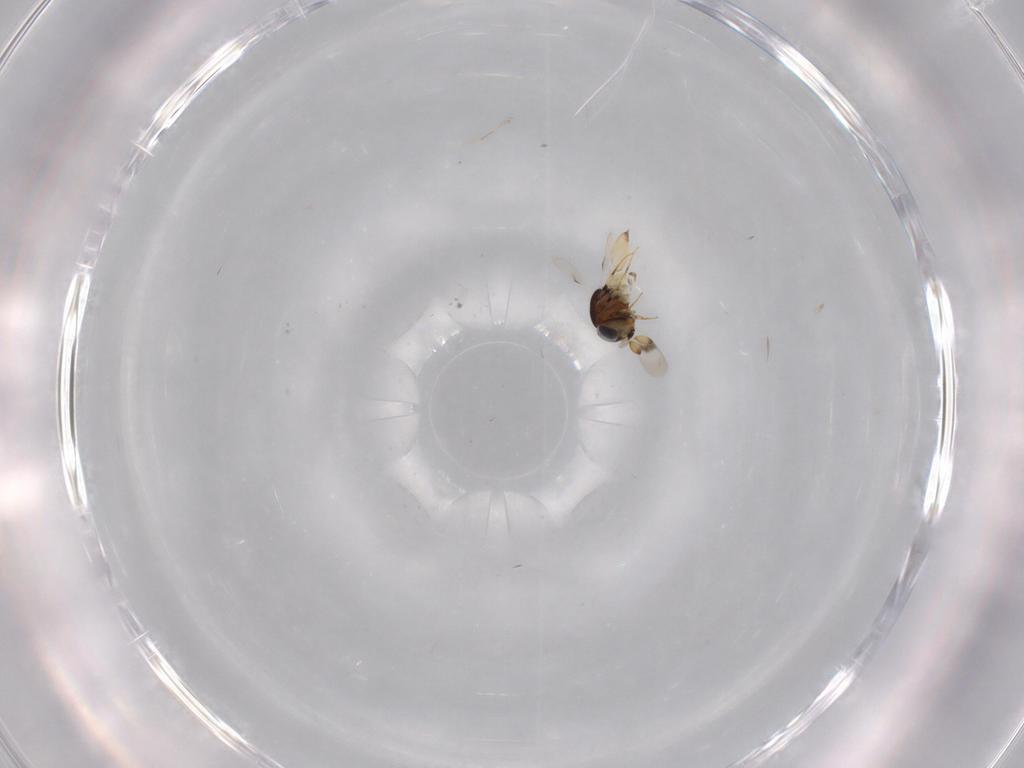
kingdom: Animalia
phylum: Arthropoda
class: Insecta
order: Hymenoptera
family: Scelionidae
